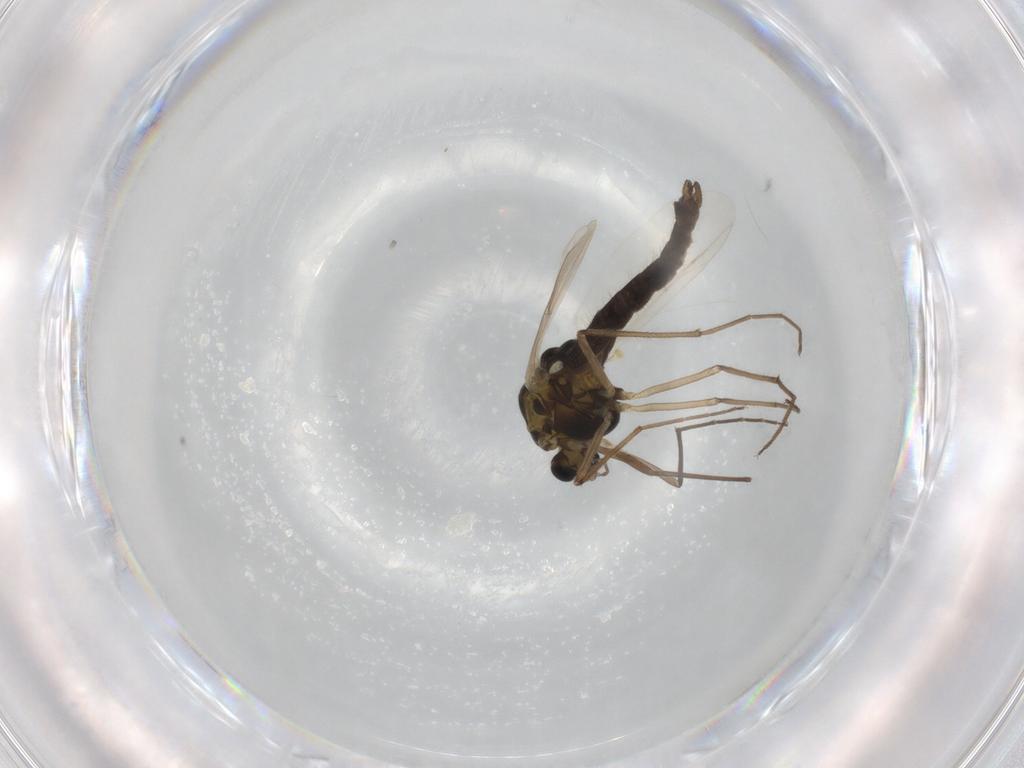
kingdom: Animalia
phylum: Arthropoda
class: Insecta
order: Diptera
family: Chironomidae
